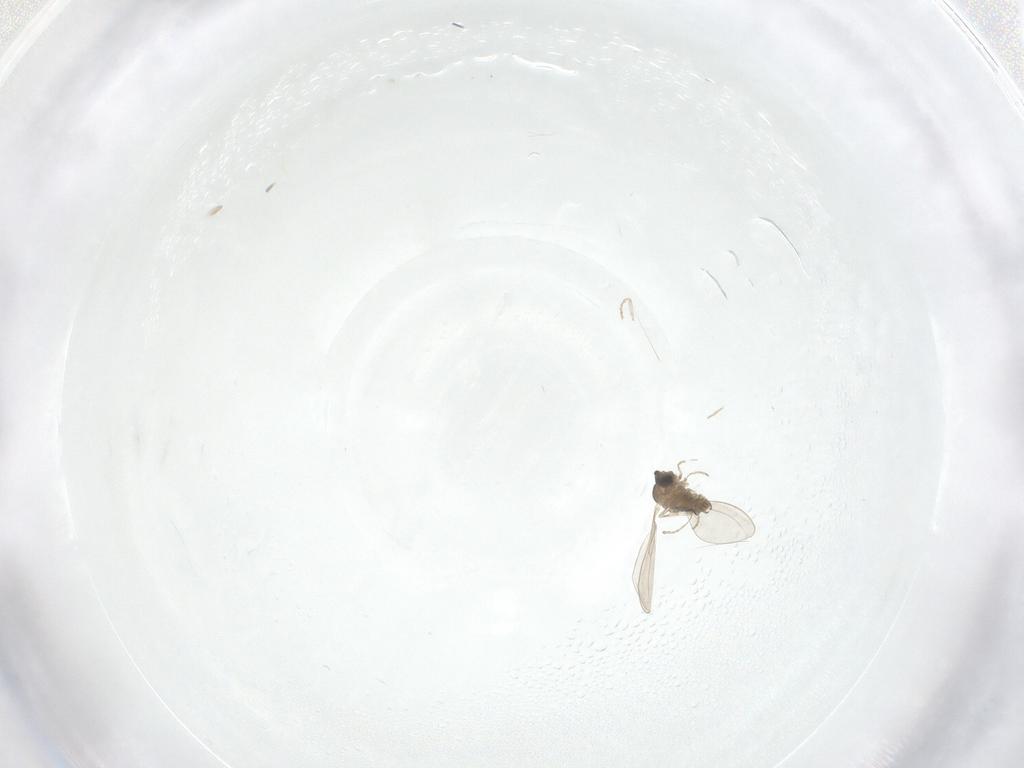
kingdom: Animalia
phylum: Arthropoda
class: Insecta
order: Diptera
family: Cecidomyiidae
